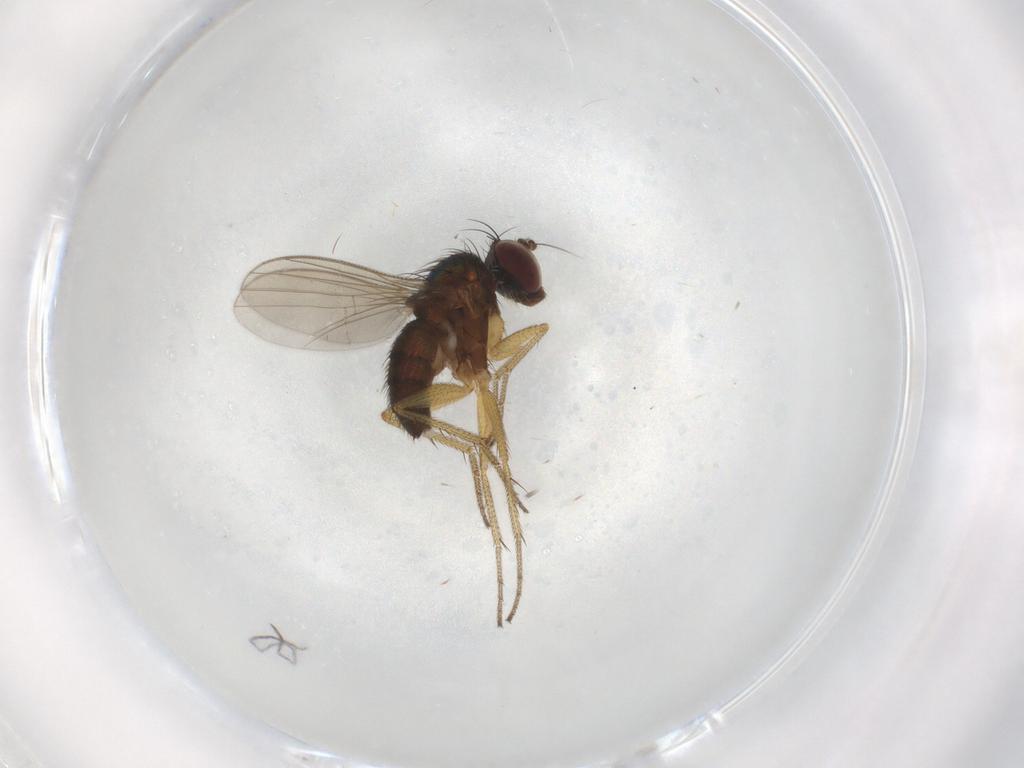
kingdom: Animalia
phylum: Arthropoda
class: Insecta
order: Diptera
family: Dolichopodidae
